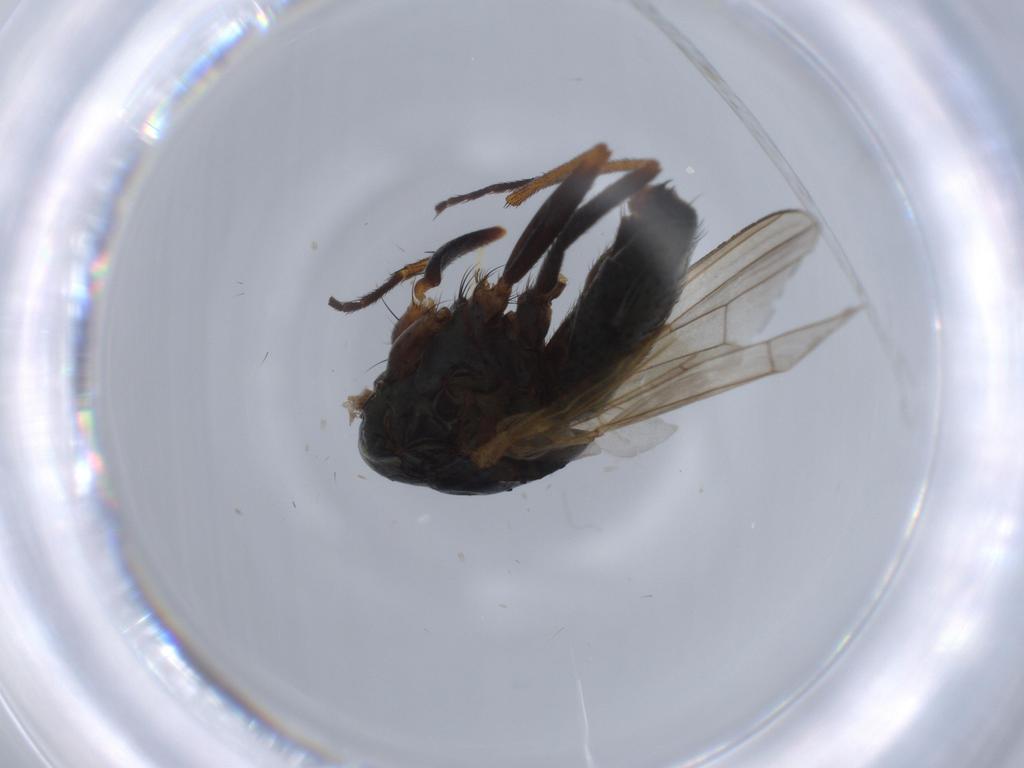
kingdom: Animalia
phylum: Arthropoda
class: Insecta
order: Diptera
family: Muscidae
